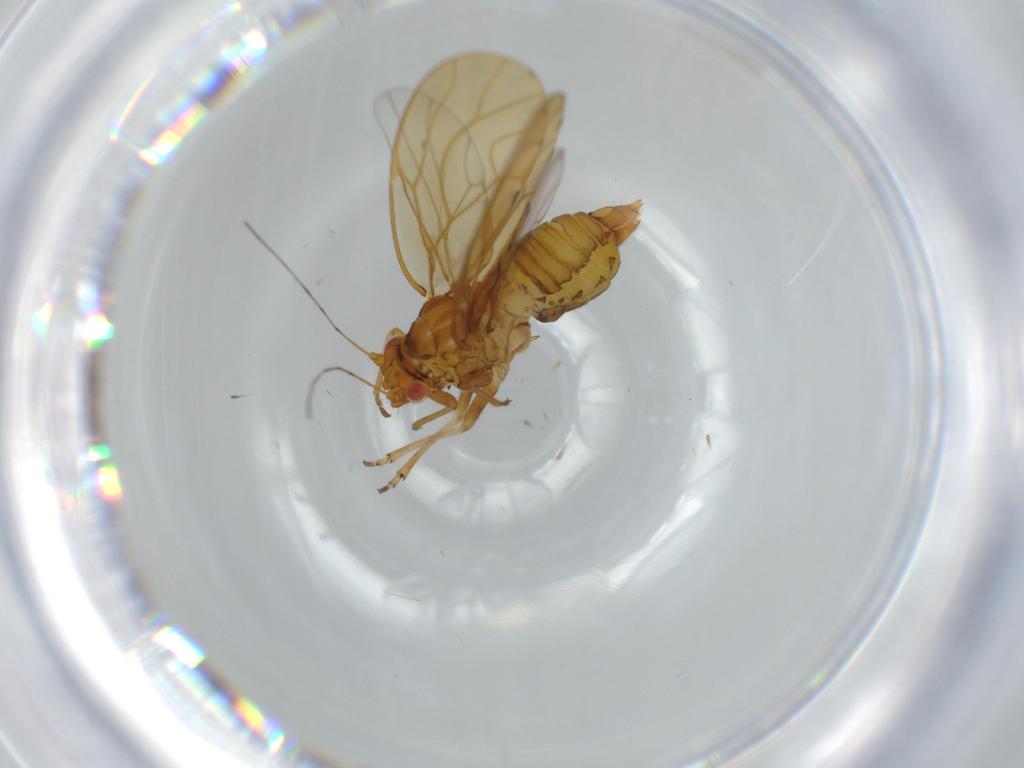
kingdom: Animalia
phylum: Arthropoda
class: Insecta
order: Hemiptera
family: Psylloidea_incertae_sedis
